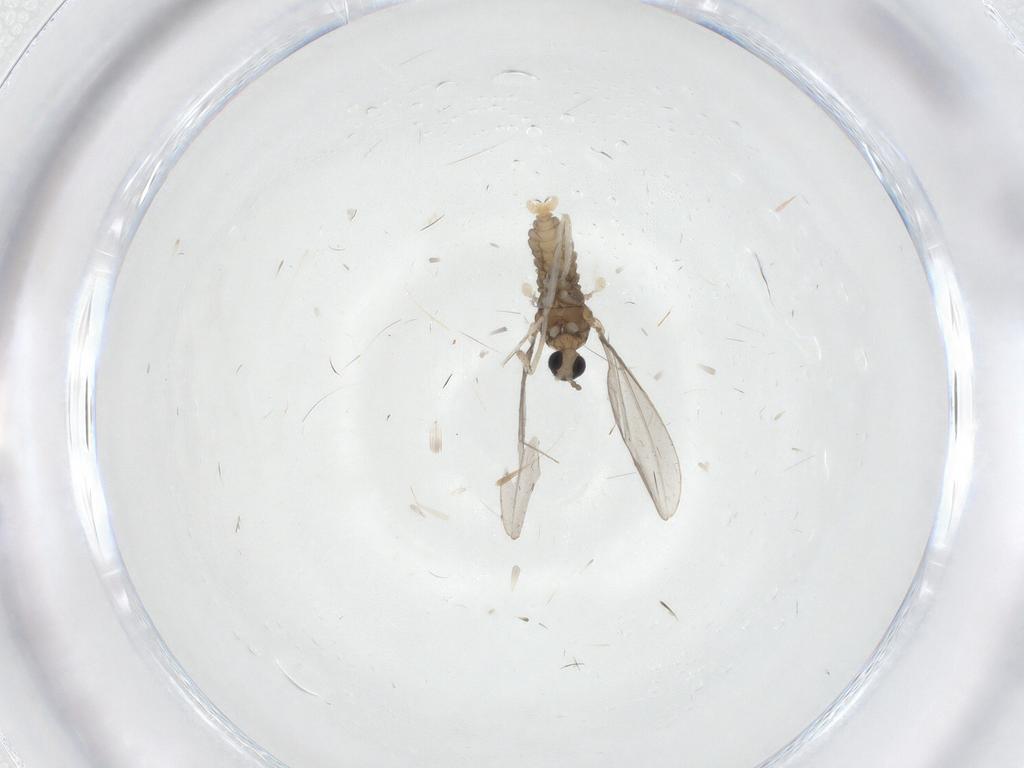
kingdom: Animalia
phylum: Arthropoda
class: Insecta
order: Diptera
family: Cecidomyiidae
